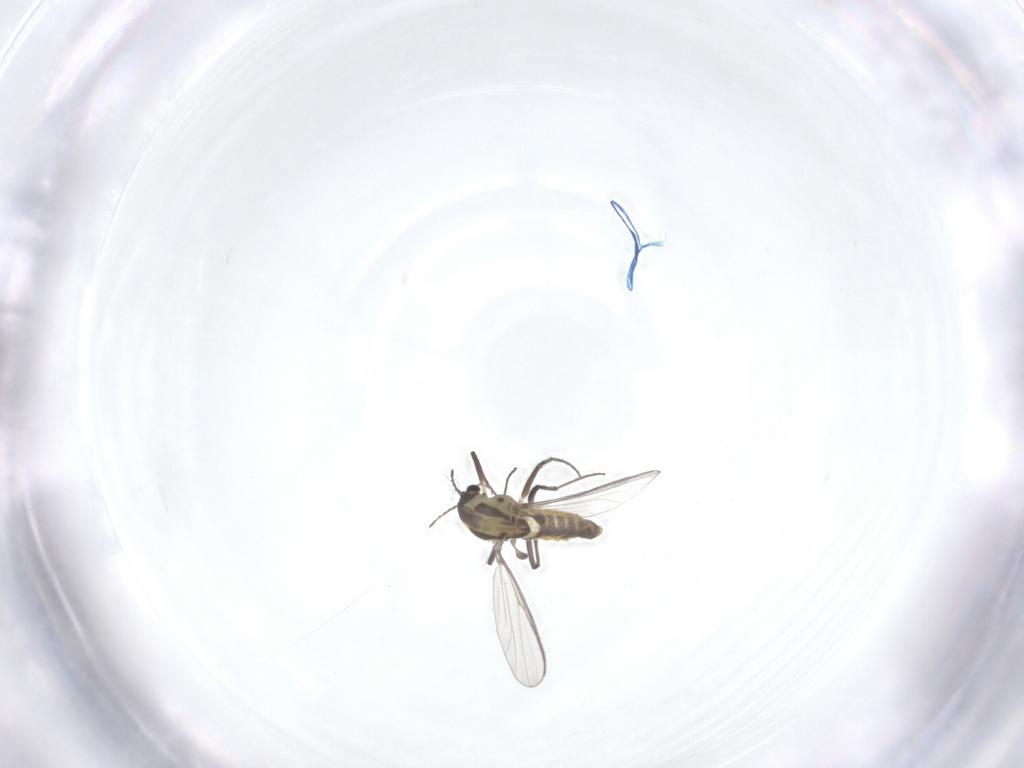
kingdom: Animalia
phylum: Arthropoda
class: Insecta
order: Diptera
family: Chironomidae
